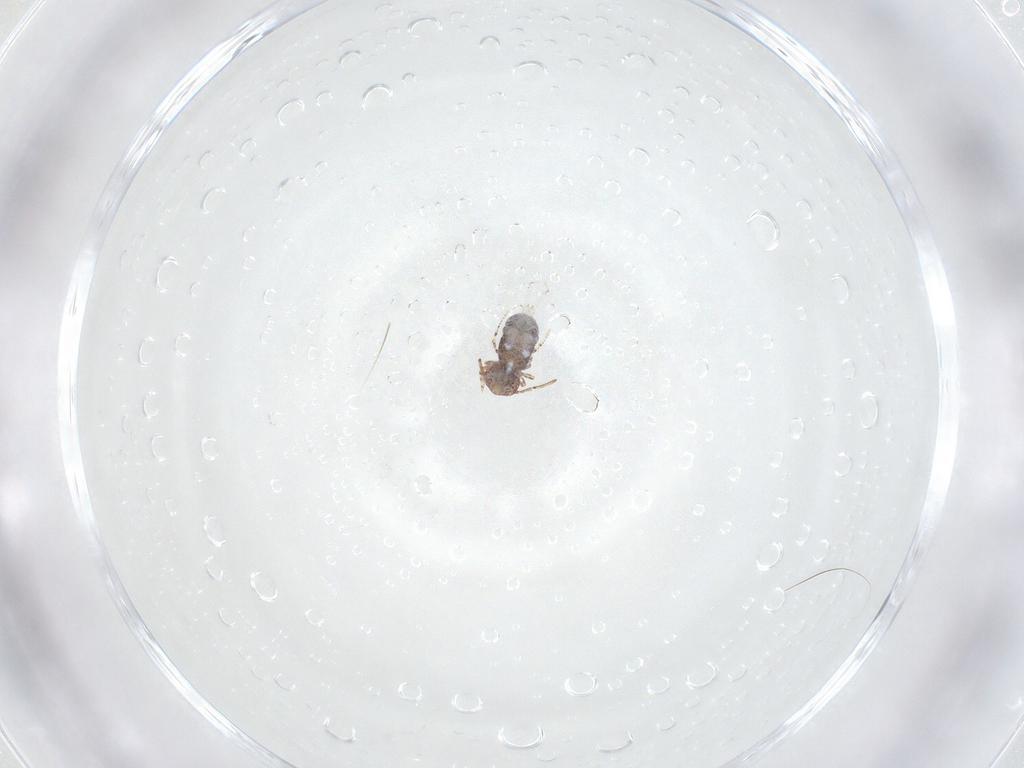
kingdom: Animalia
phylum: Arthropoda
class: Collembola
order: Symphypleona
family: Bourletiellidae
